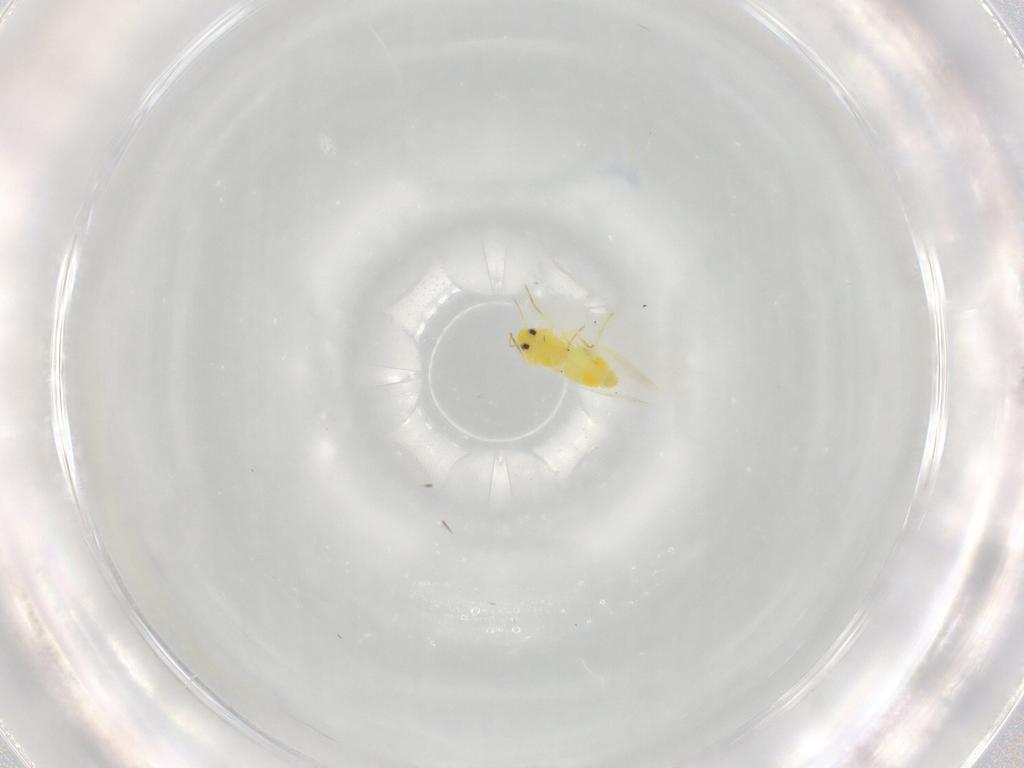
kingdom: Animalia
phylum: Arthropoda
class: Insecta
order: Hemiptera
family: Aleyrodidae
